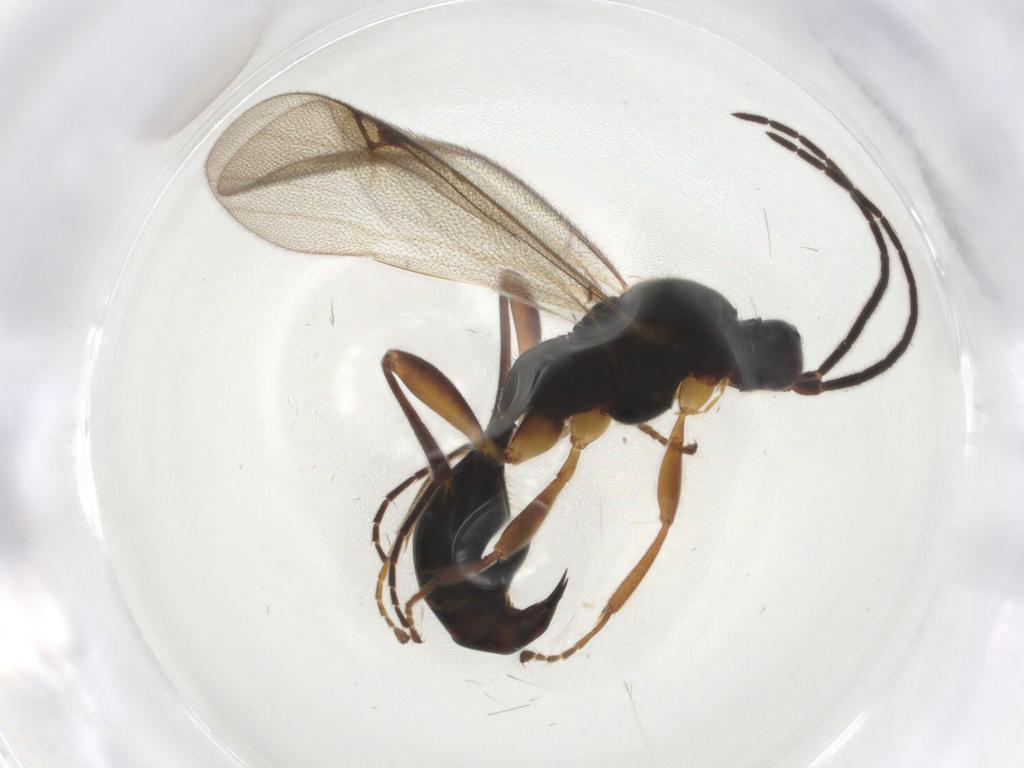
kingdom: Animalia
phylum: Arthropoda
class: Insecta
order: Hymenoptera
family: Proctotrupidae
